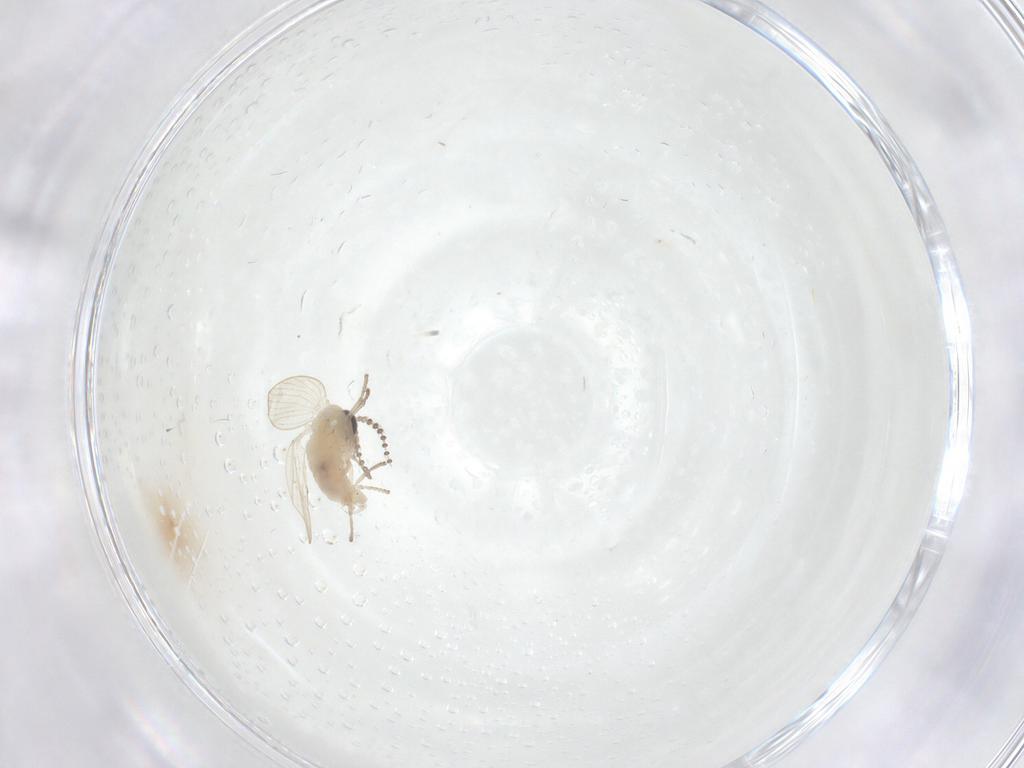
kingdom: Animalia
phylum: Arthropoda
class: Insecta
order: Diptera
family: Psychodidae
